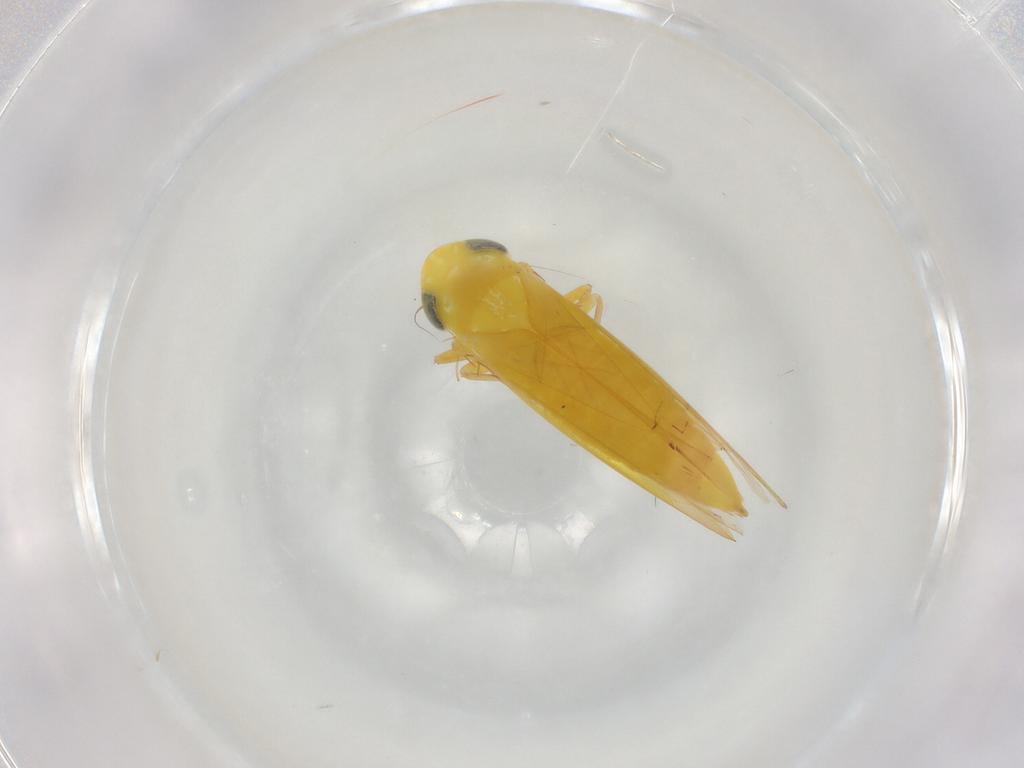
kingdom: Animalia
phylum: Arthropoda
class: Insecta
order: Hemiptera
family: Cicadellidae
